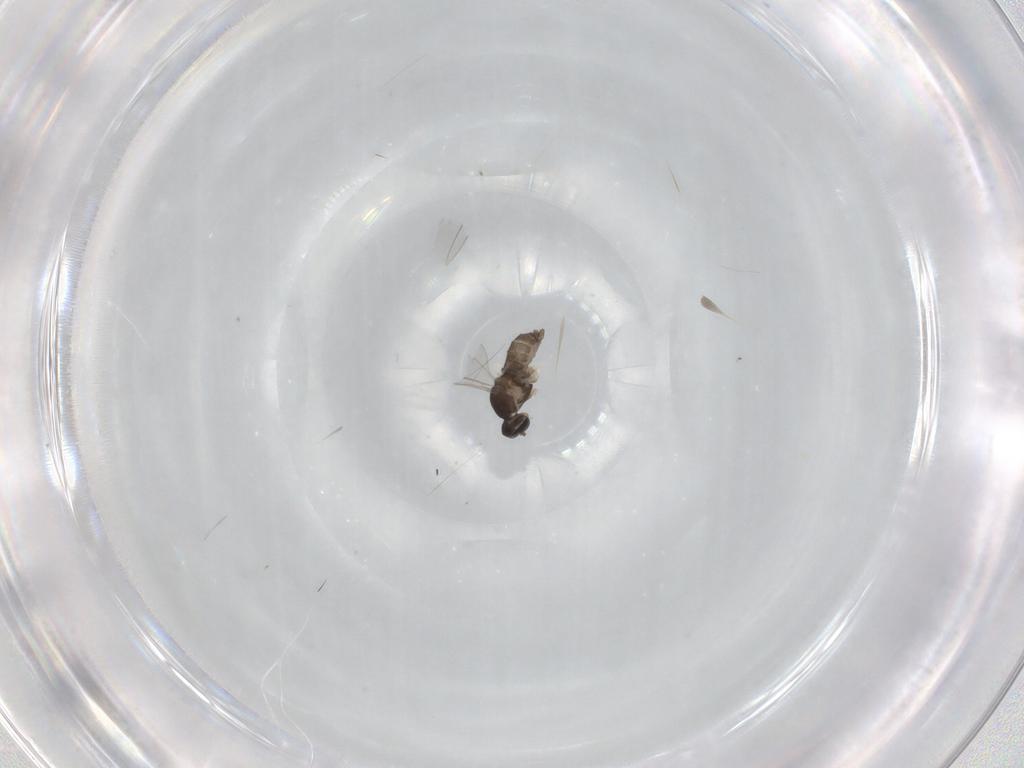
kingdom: Animalia
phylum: Arthropoda
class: Insecta
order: Diptera
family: Cecidomyiidae
